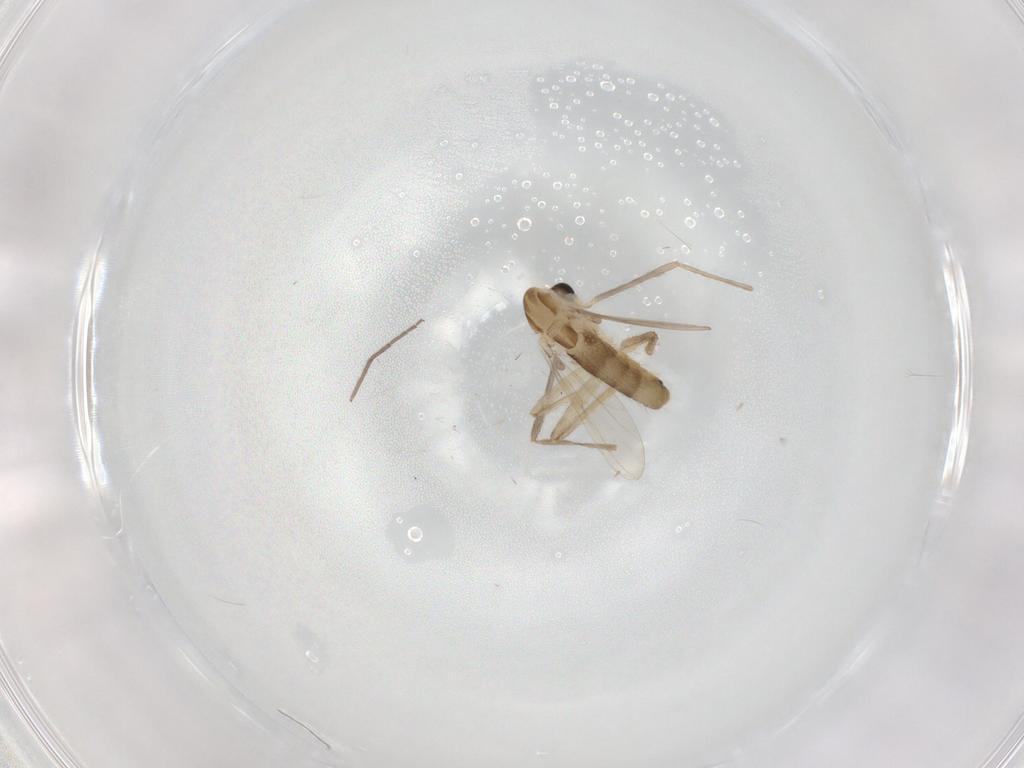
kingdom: Animalia
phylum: Arthropoda
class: Insecta
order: Diptera
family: Chironomidae
